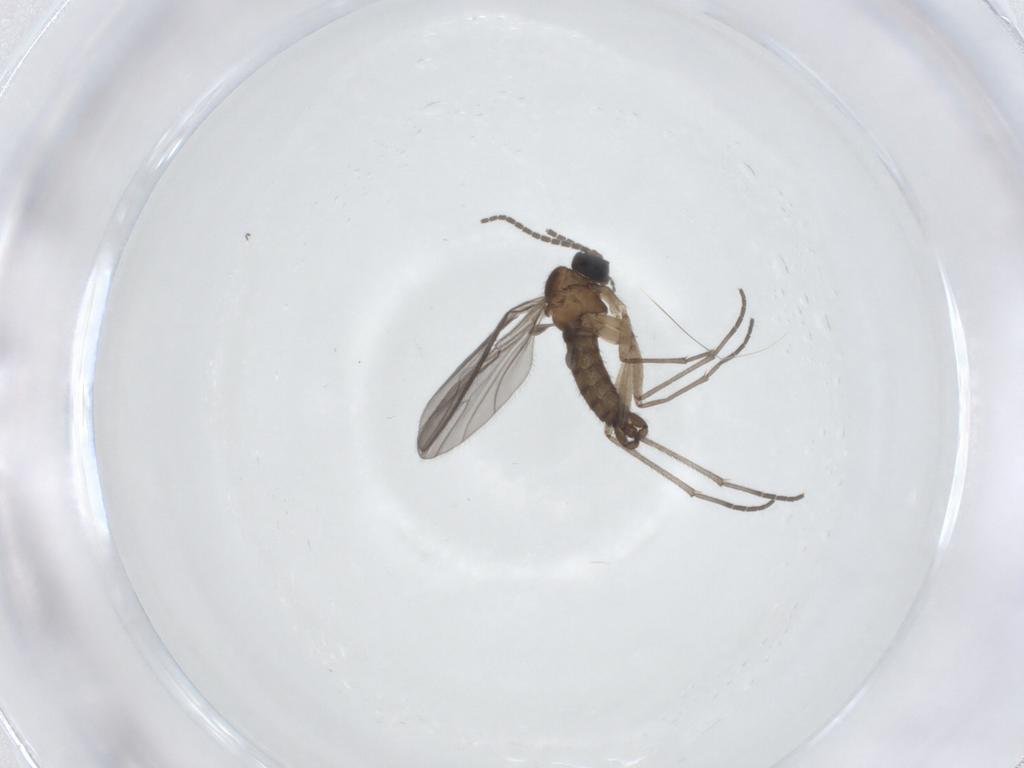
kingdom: Animalia
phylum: Arthropoda
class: Insecta
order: Diptera
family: Sciaridae
